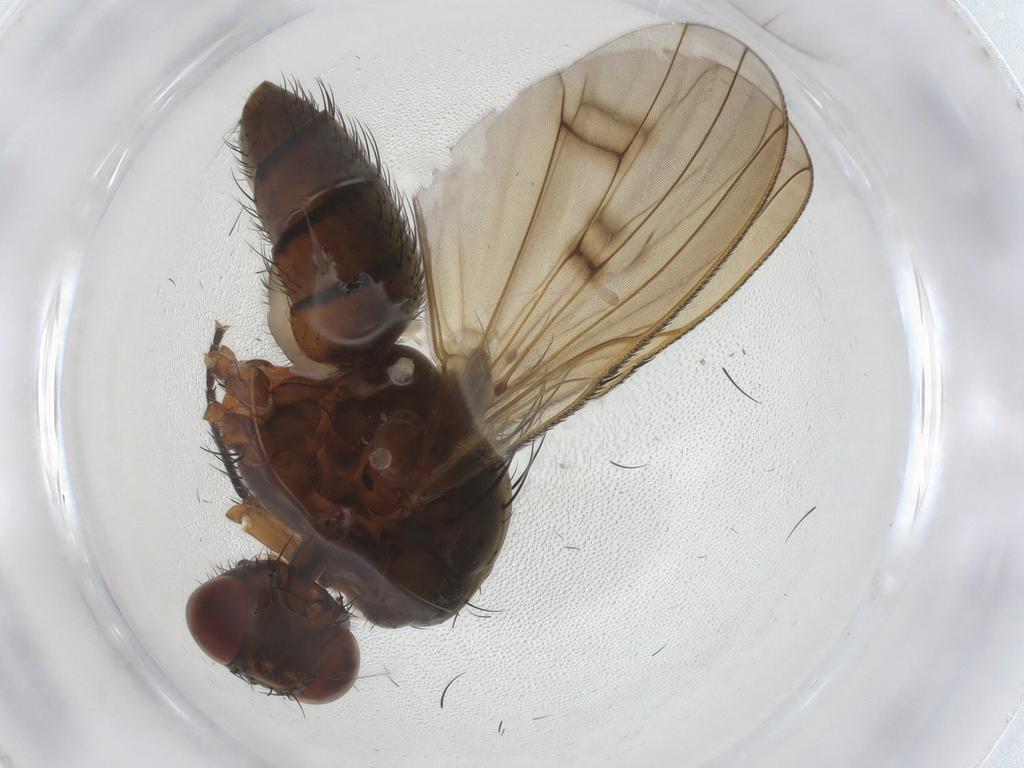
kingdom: Animalia
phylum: Arthropoda
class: Insecta
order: Diptera
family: Anthomyiidae
